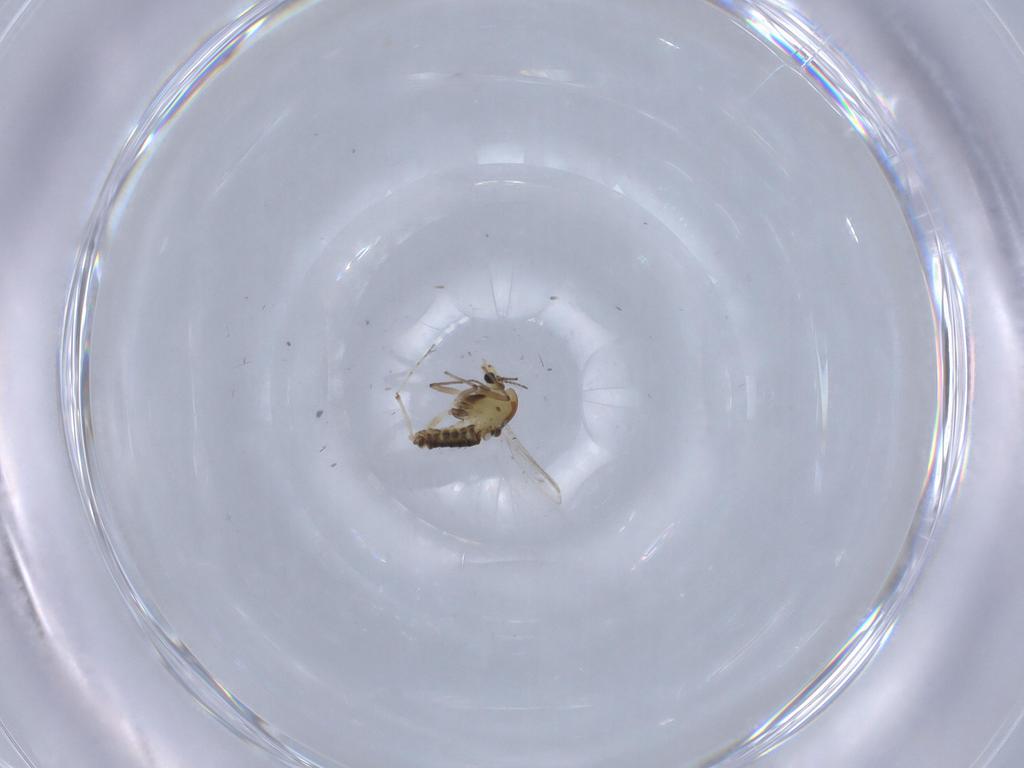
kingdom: Animalia
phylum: Arthropoda
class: Insecta
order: Diptera
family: Chironomidae
